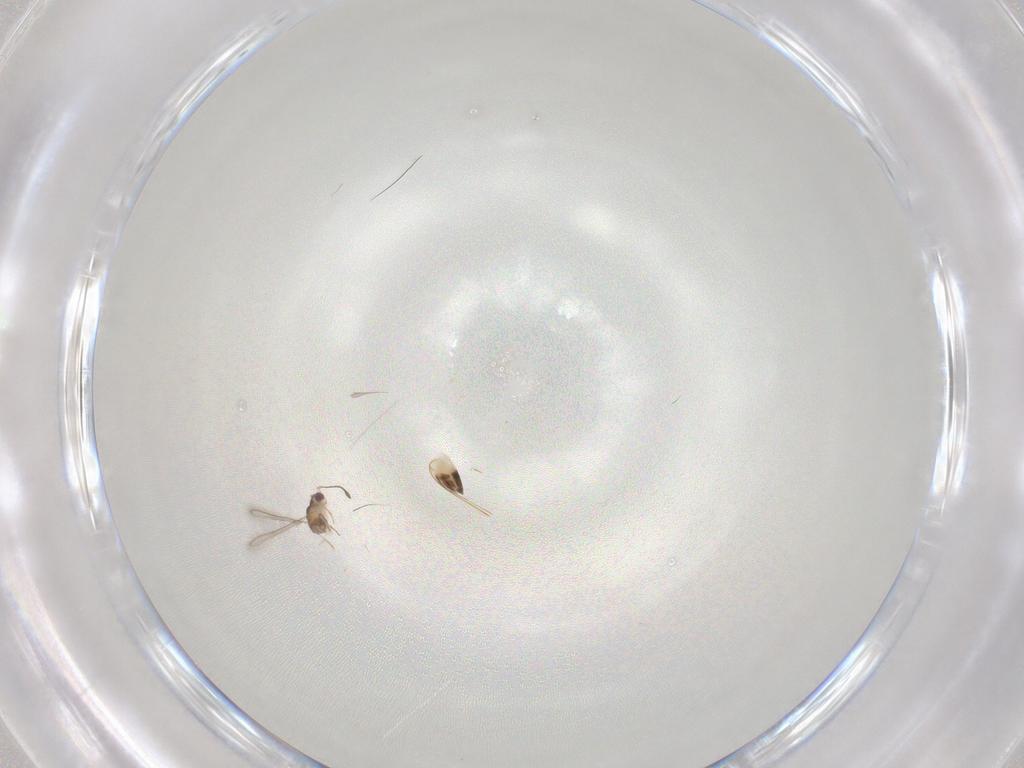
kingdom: Animalia
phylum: Arthropoda
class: Insecta
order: Hymenoptera
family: Mymaridae
